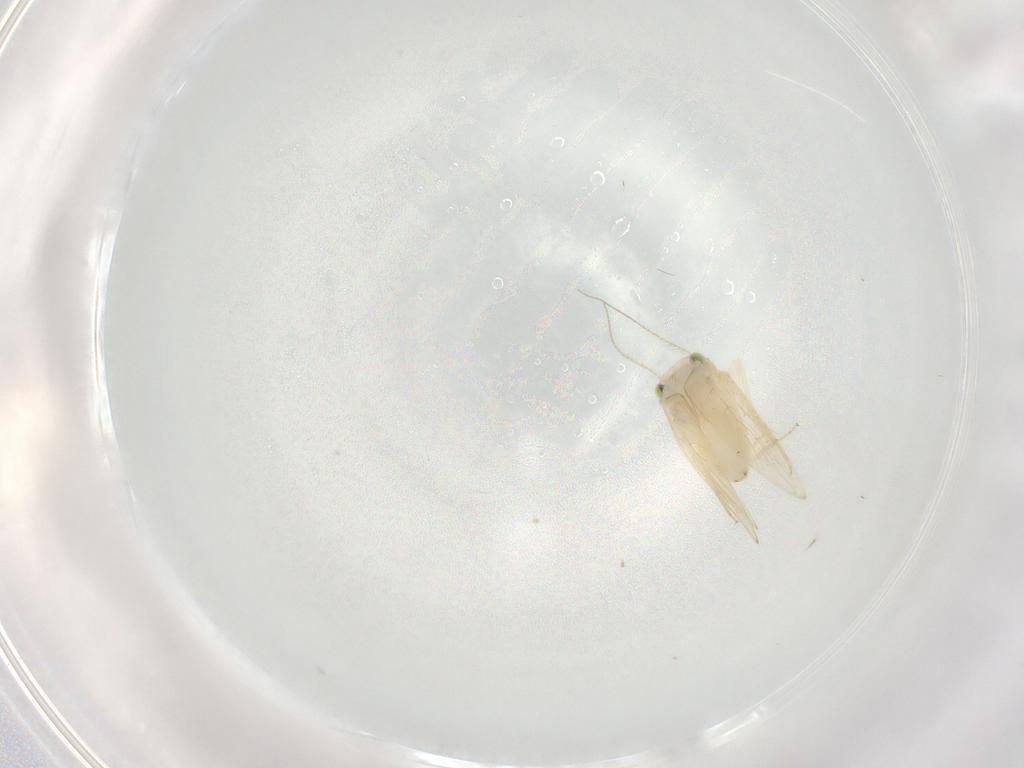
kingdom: Animalia
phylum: Arthropoda
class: Insecta
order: Psocodea
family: Lepidopsocidae
